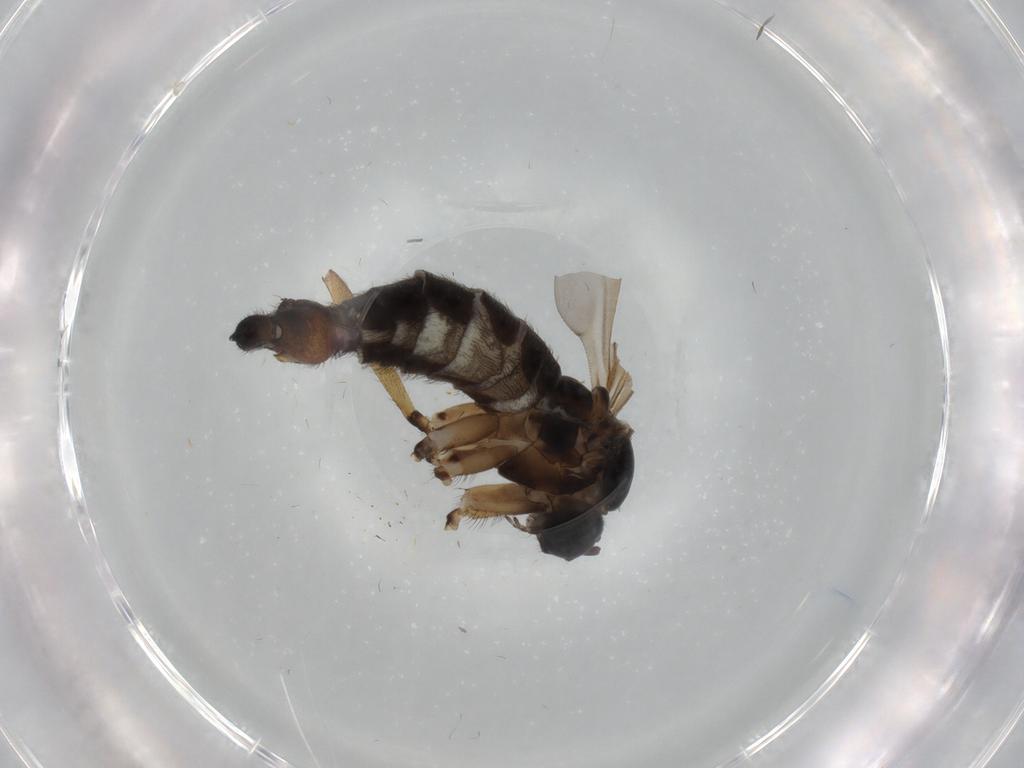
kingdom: Animalia
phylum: Arthropoda
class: Insecta
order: Diptera
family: Sciaridae
